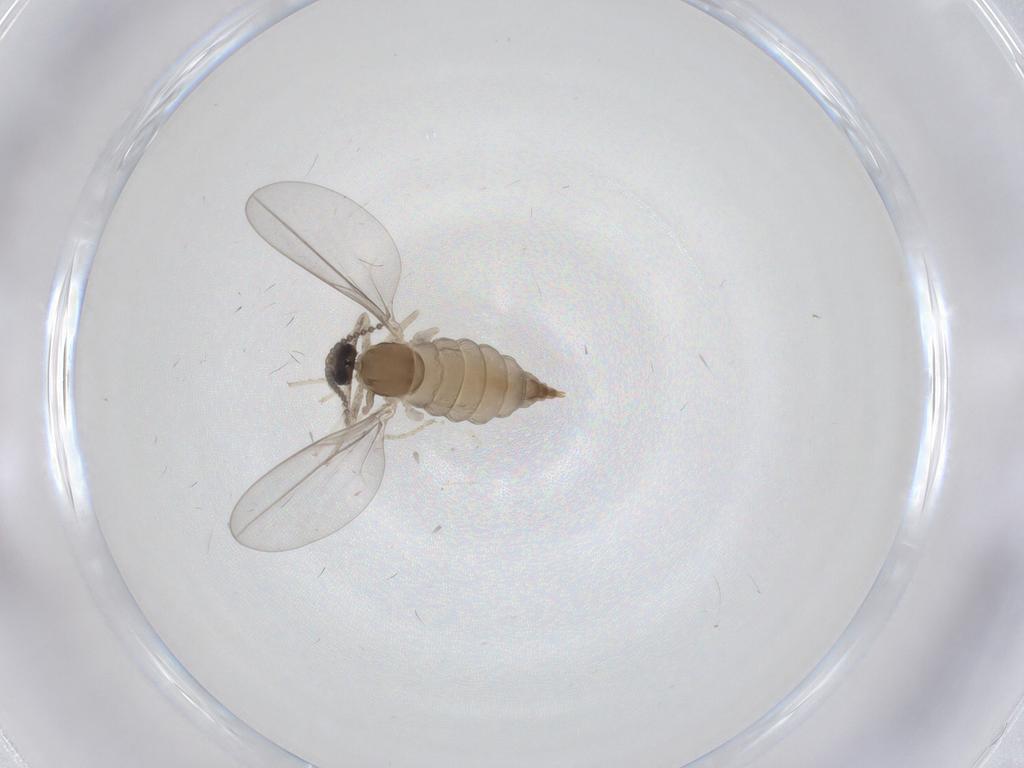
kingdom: Animalia
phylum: Arthropoda
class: Insecta
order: Diptera
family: Cecidomyiidae
